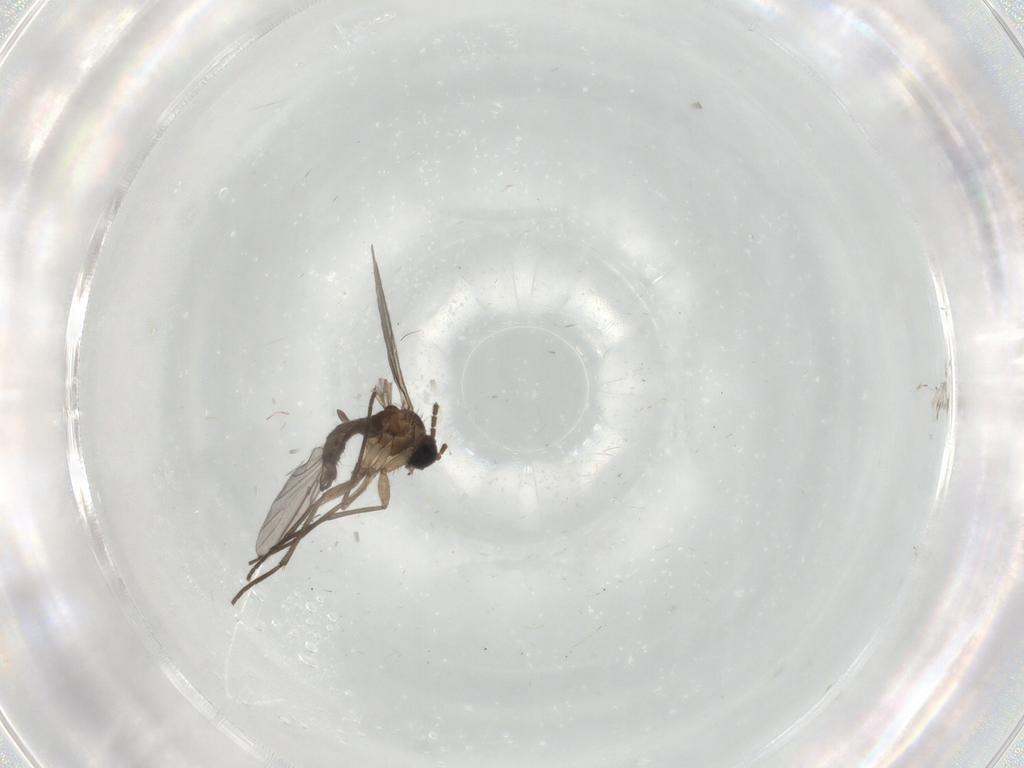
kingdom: Animalia
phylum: Arthropoda
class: Insecta
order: Diptera
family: Sciaridae
